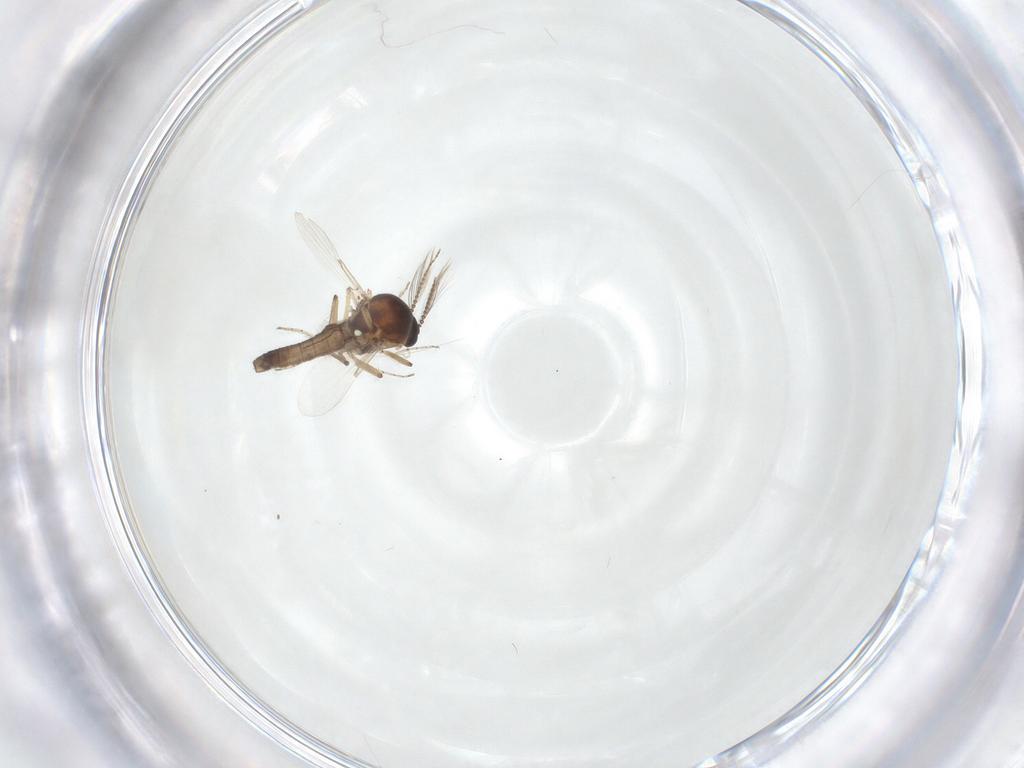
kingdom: Animalia
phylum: Arthropoda
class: Insecta
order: Diptera
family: Ceratopogonidae
